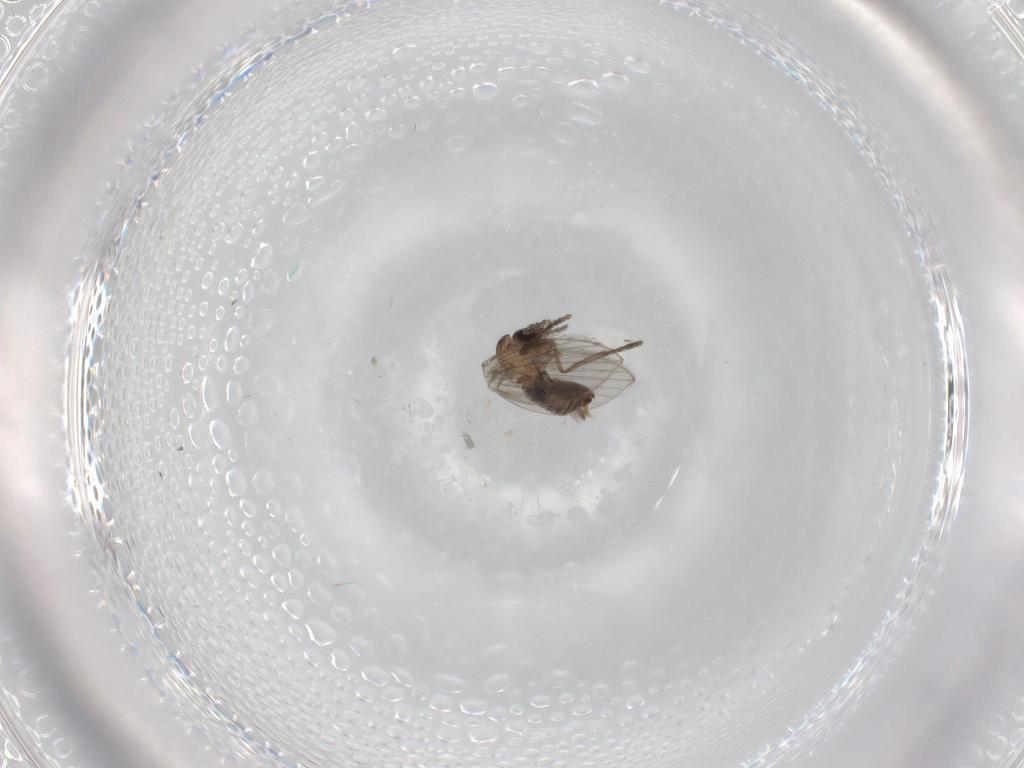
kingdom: Animalia
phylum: Arthropoda
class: Insecta
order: Diptera
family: Psychodidae
